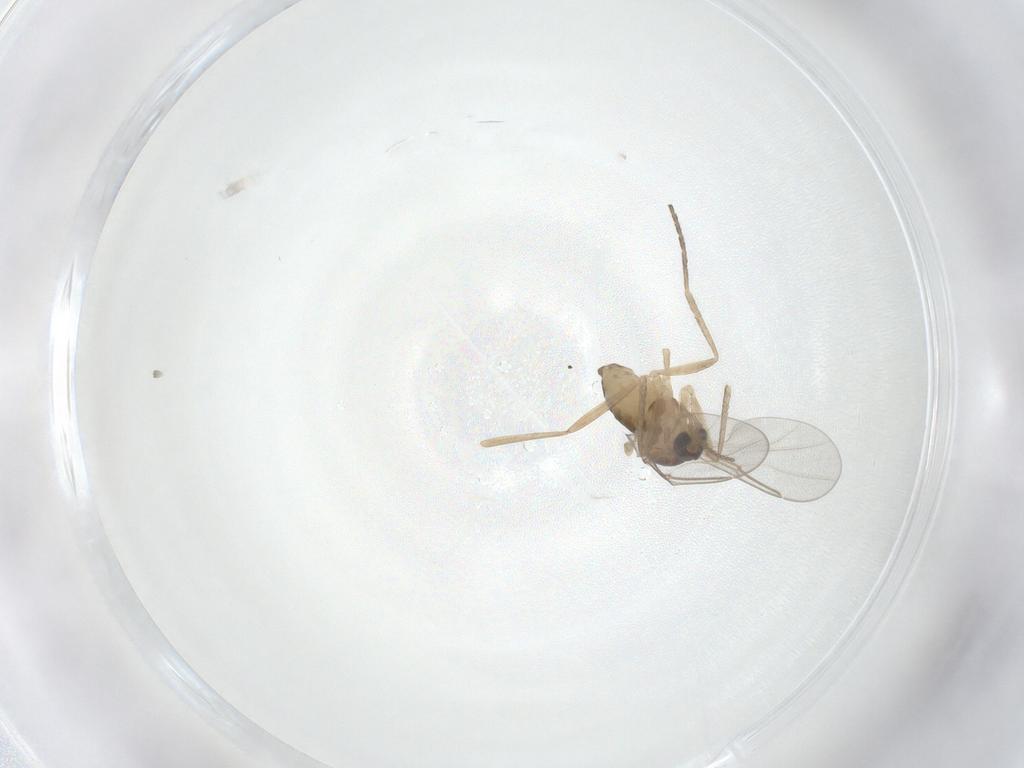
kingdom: Animalia
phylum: Arthropoda
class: Insecta
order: Diptera
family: Cecidomyiidae
